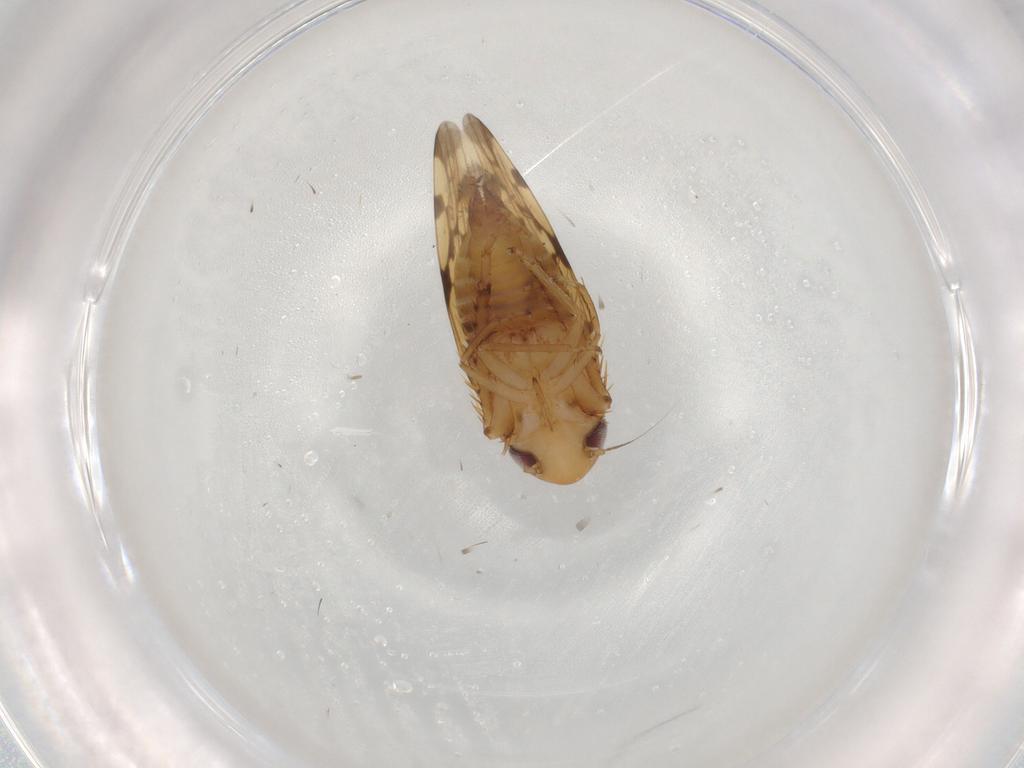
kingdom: Animalia
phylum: Arthropoda
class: Insecta
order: Hemiptera
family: Cicadellidae
